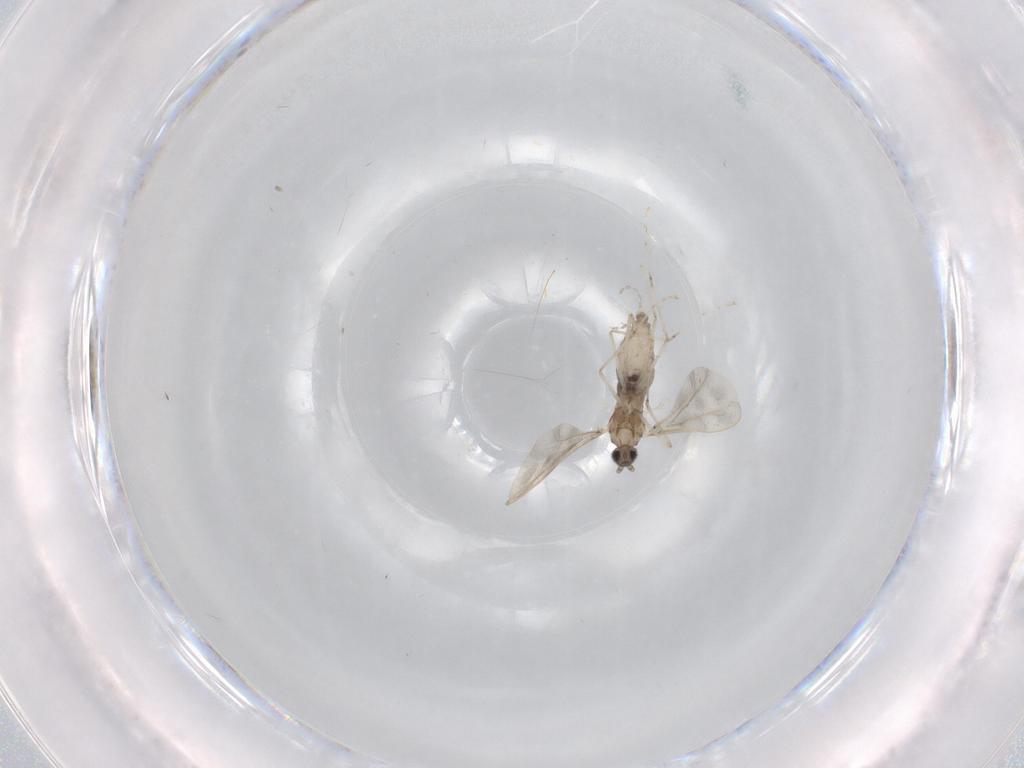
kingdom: Animalia
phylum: Arthropoda
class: Insecta
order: Diptera
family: Cecidomyiidae
